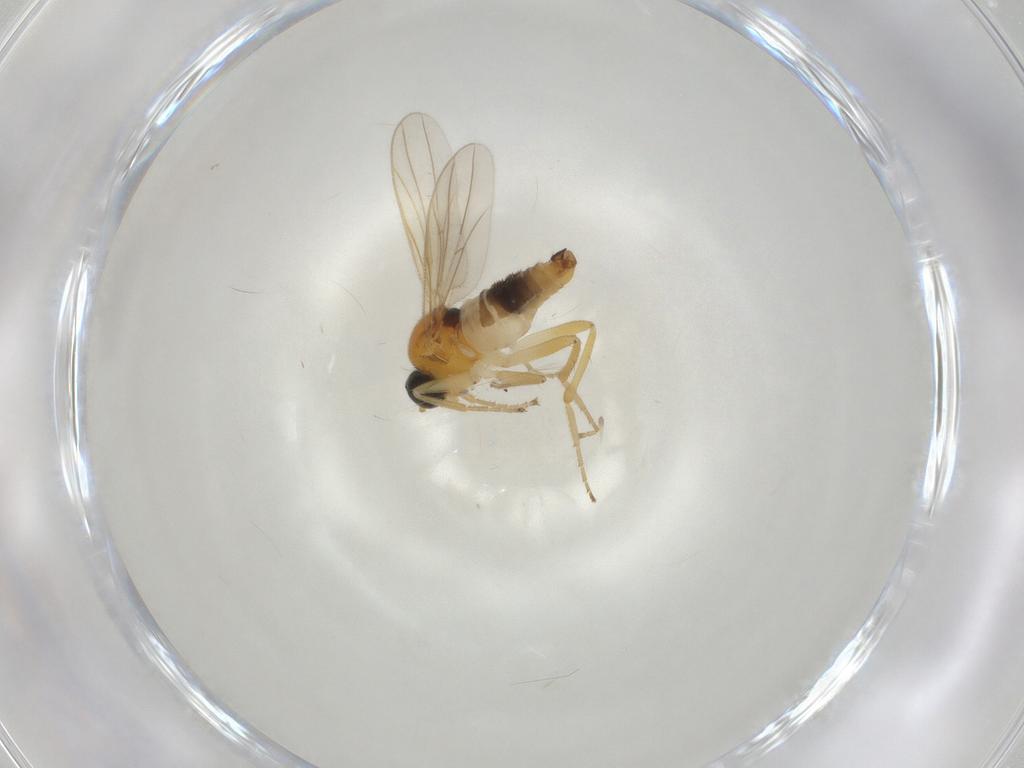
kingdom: Animalia
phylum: Arthropoda
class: Insecta
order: Diptera
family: Hybotidae
